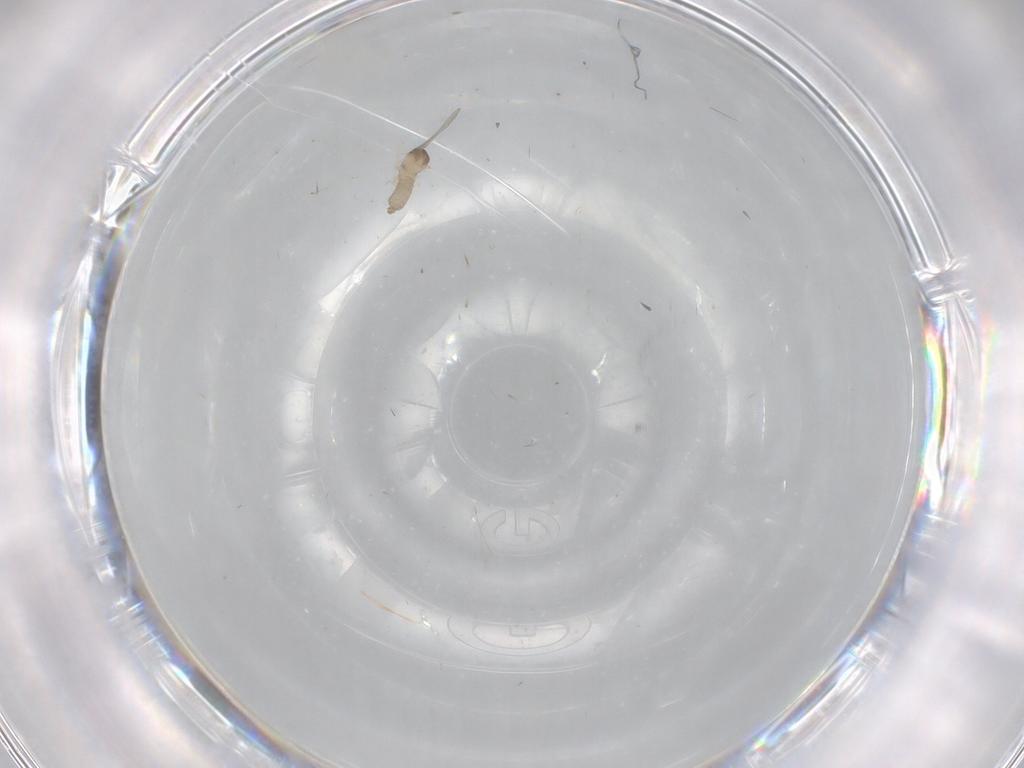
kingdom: Animalia
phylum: Arthropoda
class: Insecta
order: Diptera
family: Cecidomyiidae
